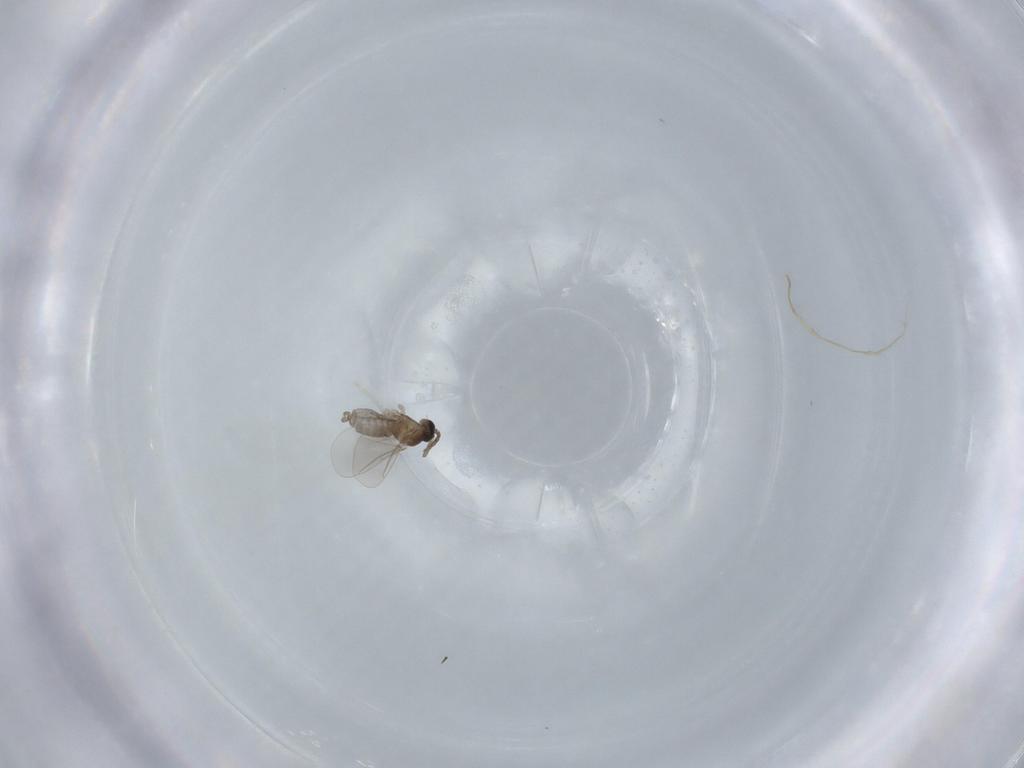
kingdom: Animalia
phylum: Arthropoda
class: Insecta
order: Diptera
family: Cecidomyiidae
